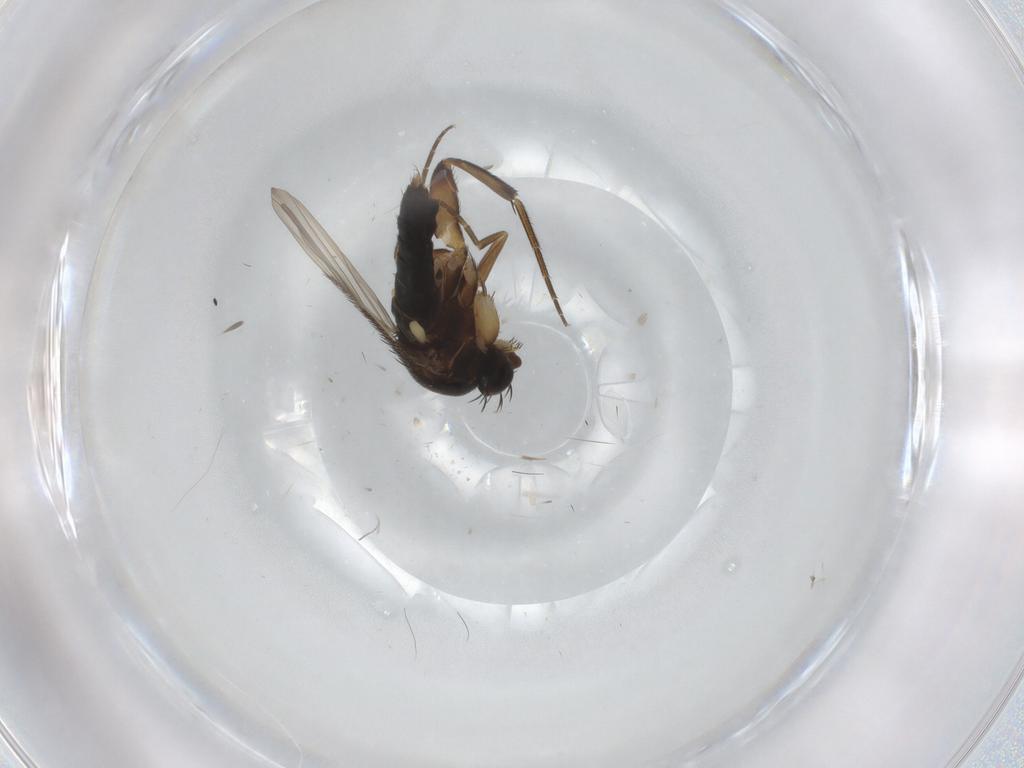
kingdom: Animalia
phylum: Arthropoda
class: Insecta
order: Diptera
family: Phoridae
